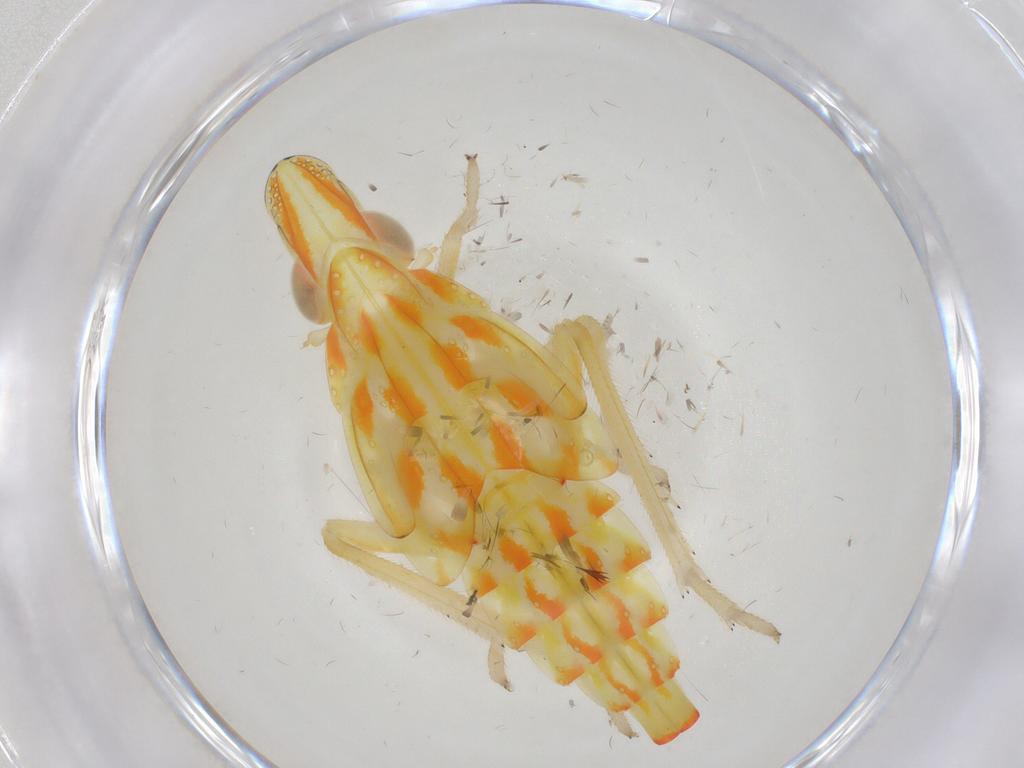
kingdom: Animalia
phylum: Arthropoda
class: Insecta
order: Hemiptera
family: Tropiduchidae
